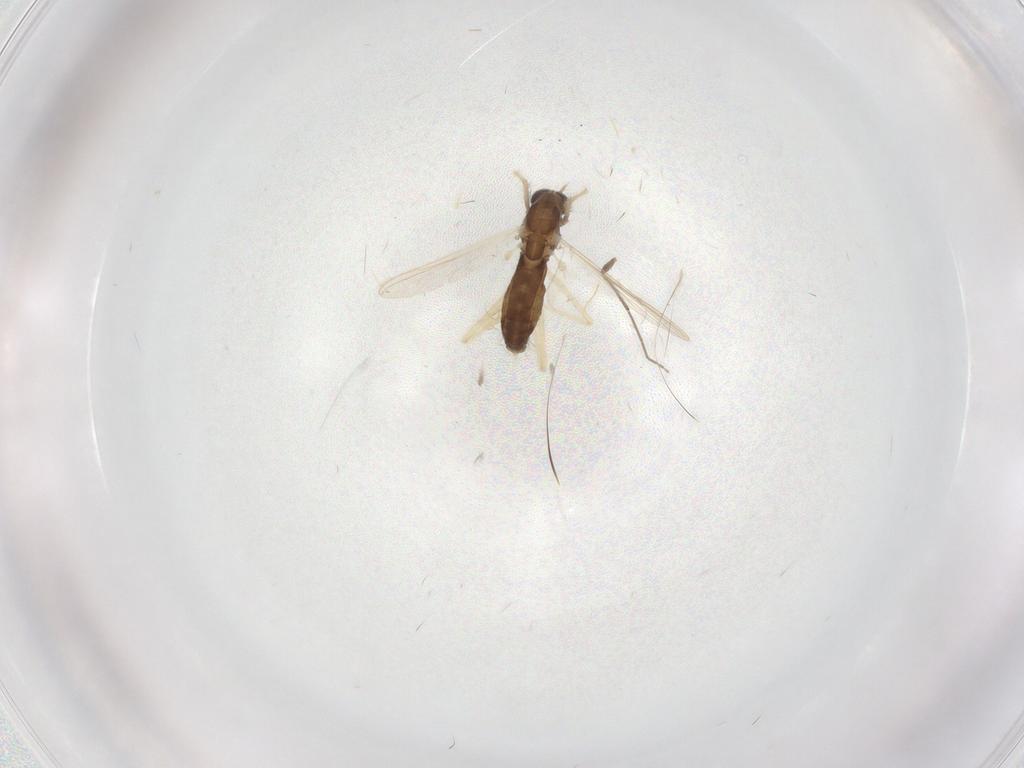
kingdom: Animalia
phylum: Arthropoda
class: Insecta
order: Diptera
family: Chironomidae
